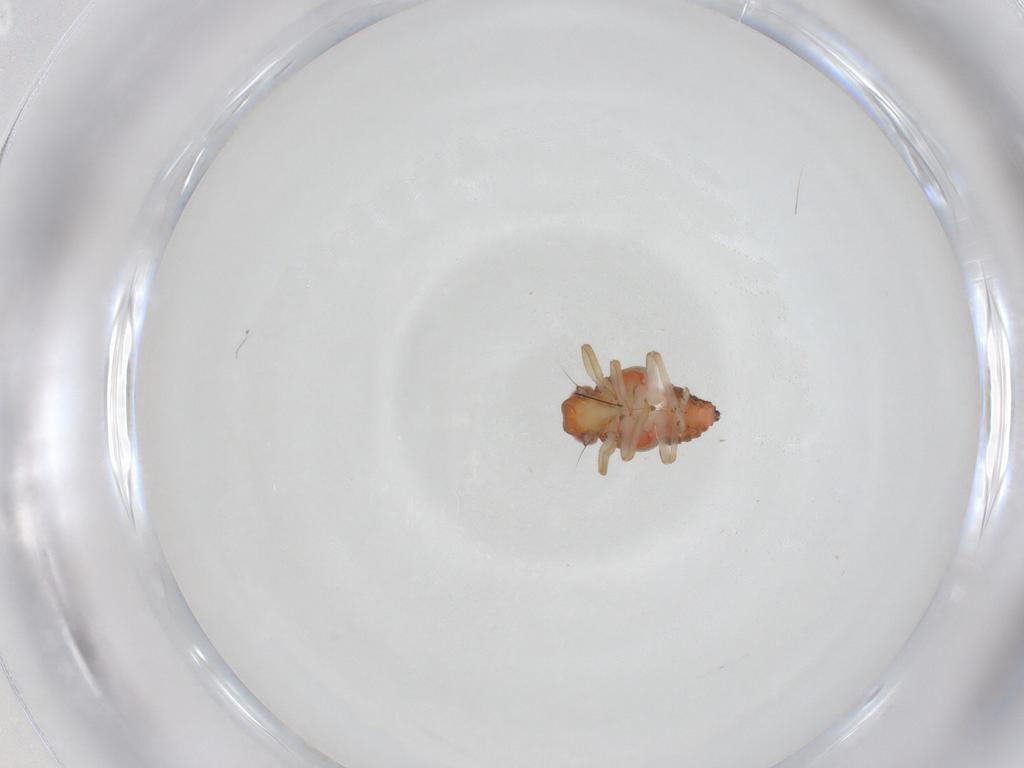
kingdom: Animalia
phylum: Arthropoda
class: Insecta
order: Hemiptera
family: Issidae
